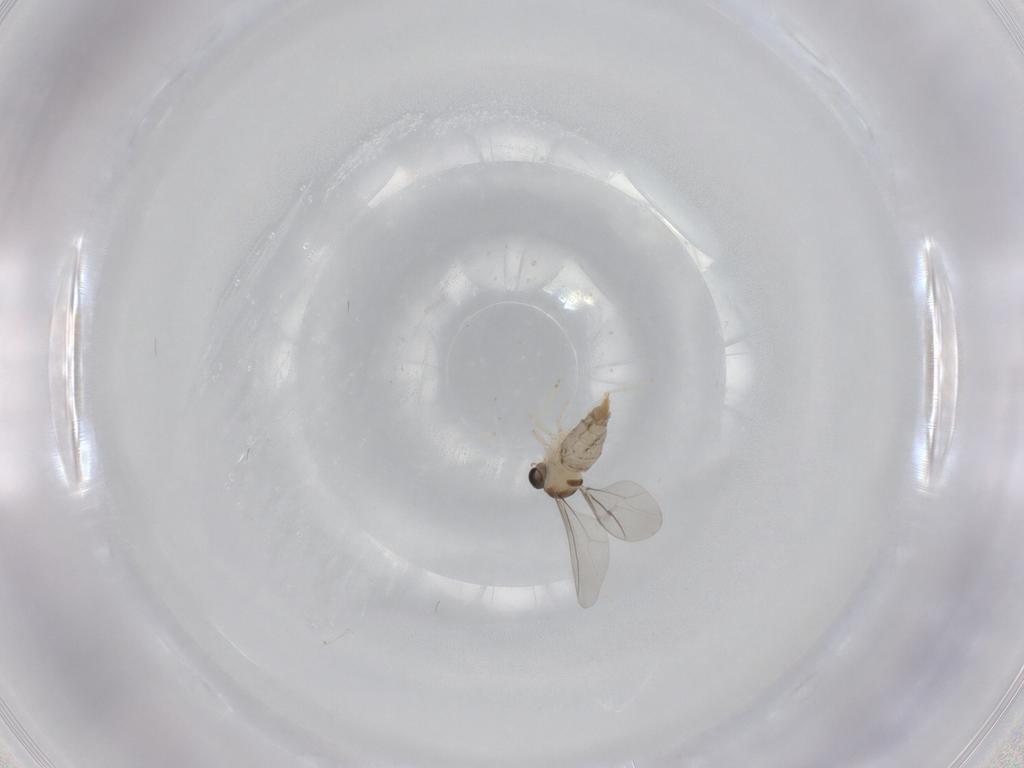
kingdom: Animalia
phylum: Arthropoda
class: Insecta
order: Diptera
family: Cecidomyiidae
